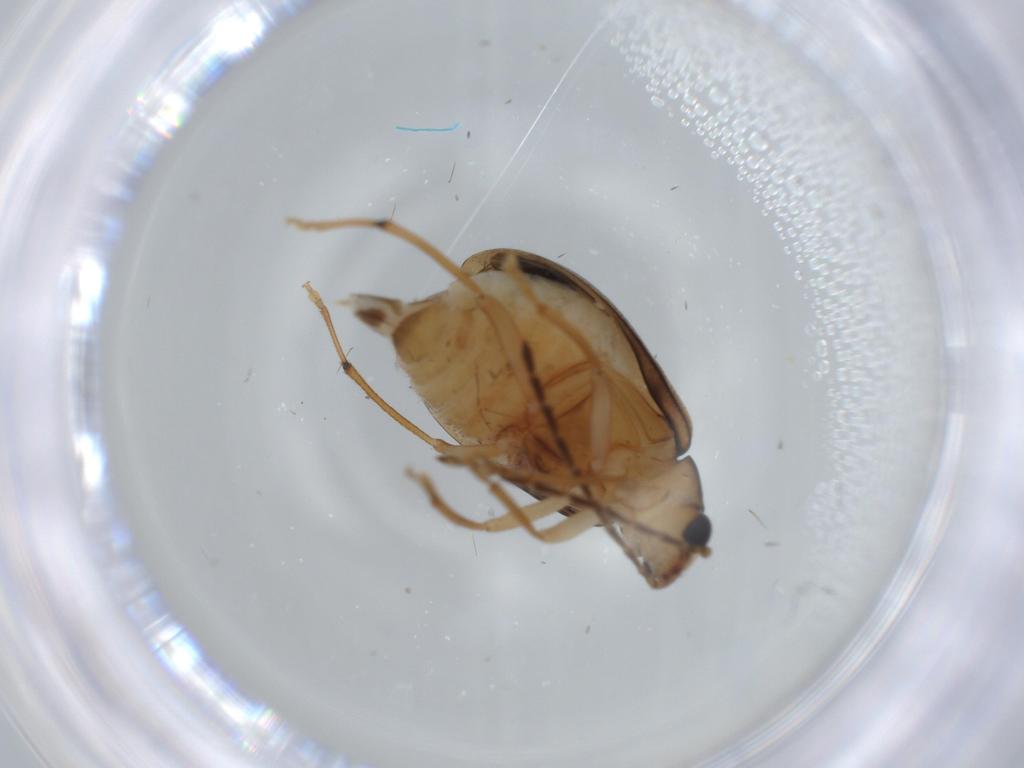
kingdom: Animalia
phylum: Arthropoda
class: Insecta
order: Coleoptera
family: Chrysomelidae
